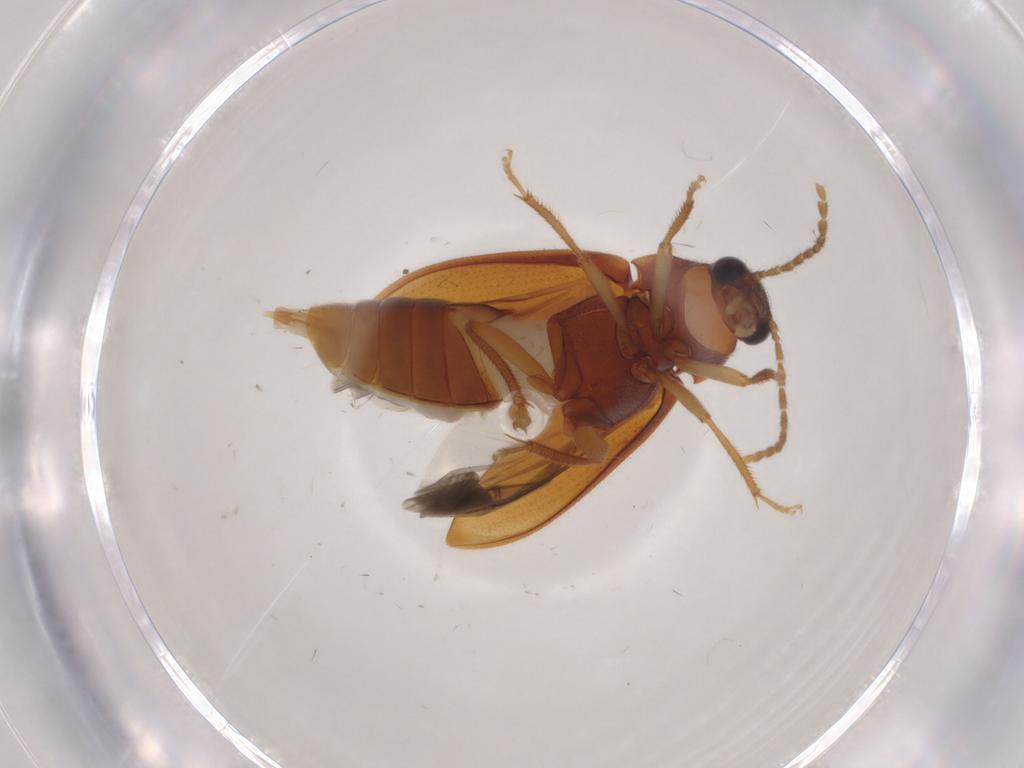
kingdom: Animalia
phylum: Arthropoda
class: Insecta
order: Coleoptera
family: Ptilodactylidae
